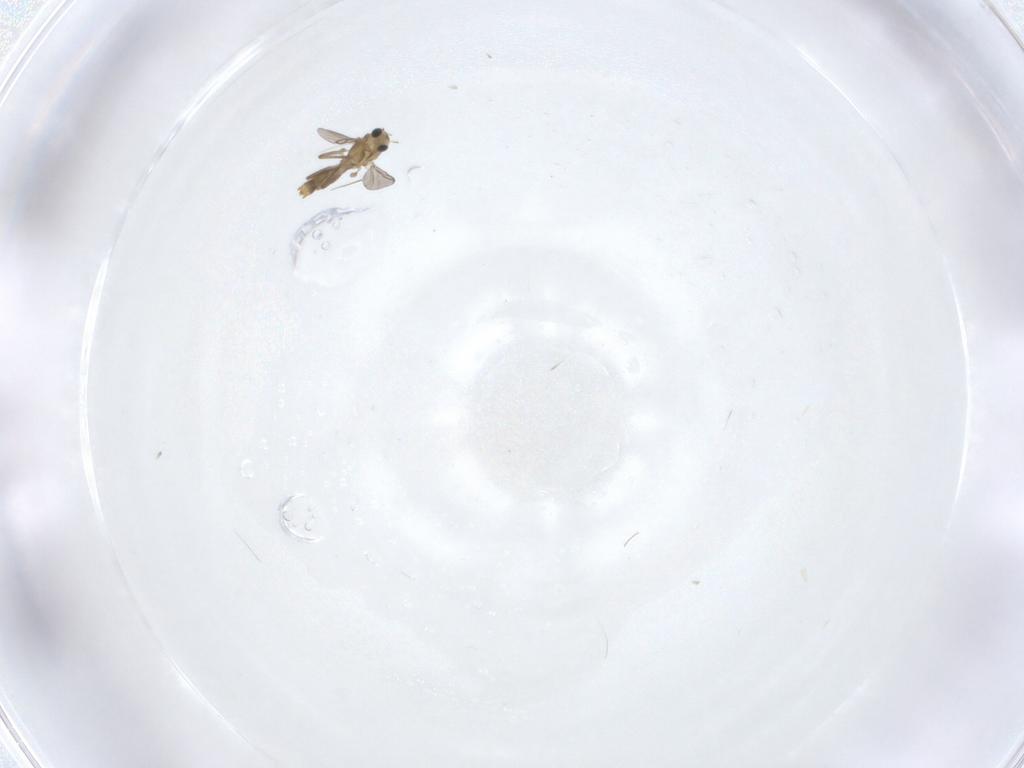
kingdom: Animalia
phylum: Arthropoda
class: Insecta
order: Diptera
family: Chironomidae
